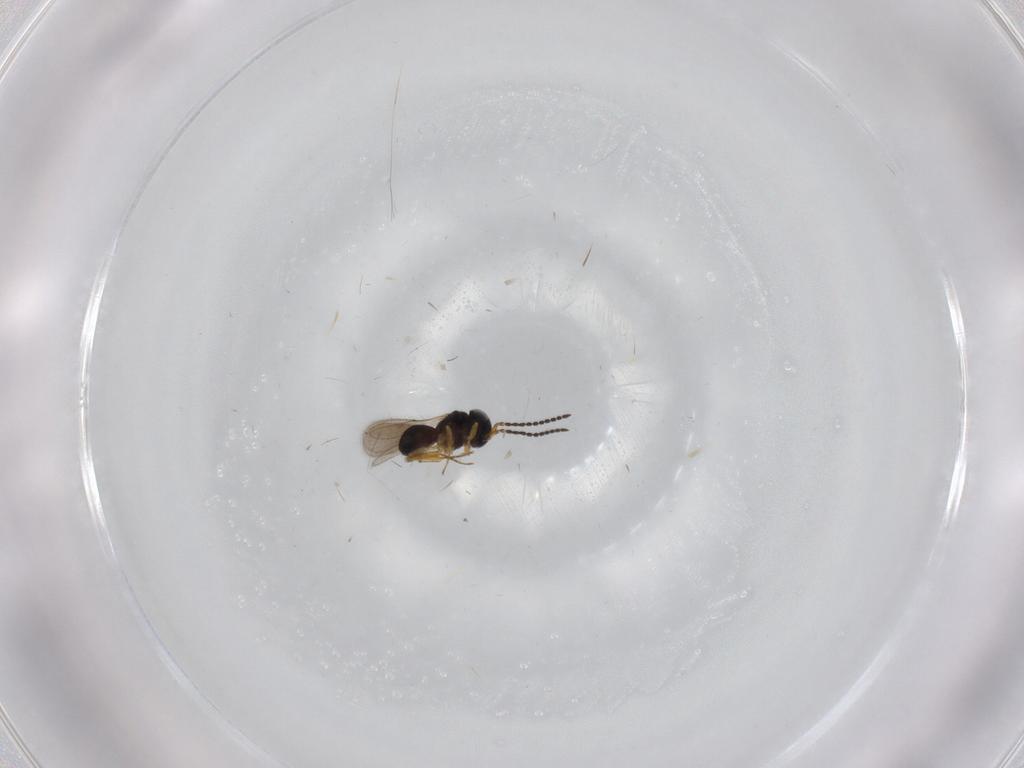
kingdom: Animalia
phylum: Arthropoda
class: Insecta
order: Hymenoptera
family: Scelionidae
